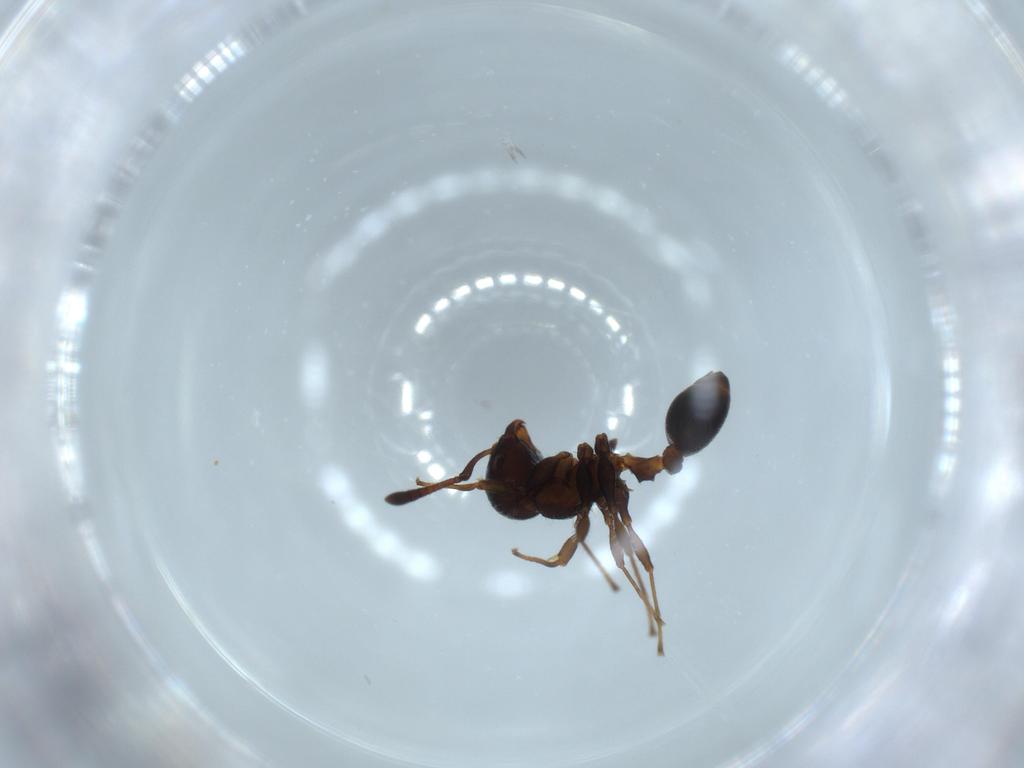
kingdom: Animalia
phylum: Arthropoda
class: Insecta
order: Hymenoptera
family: Formicidae
